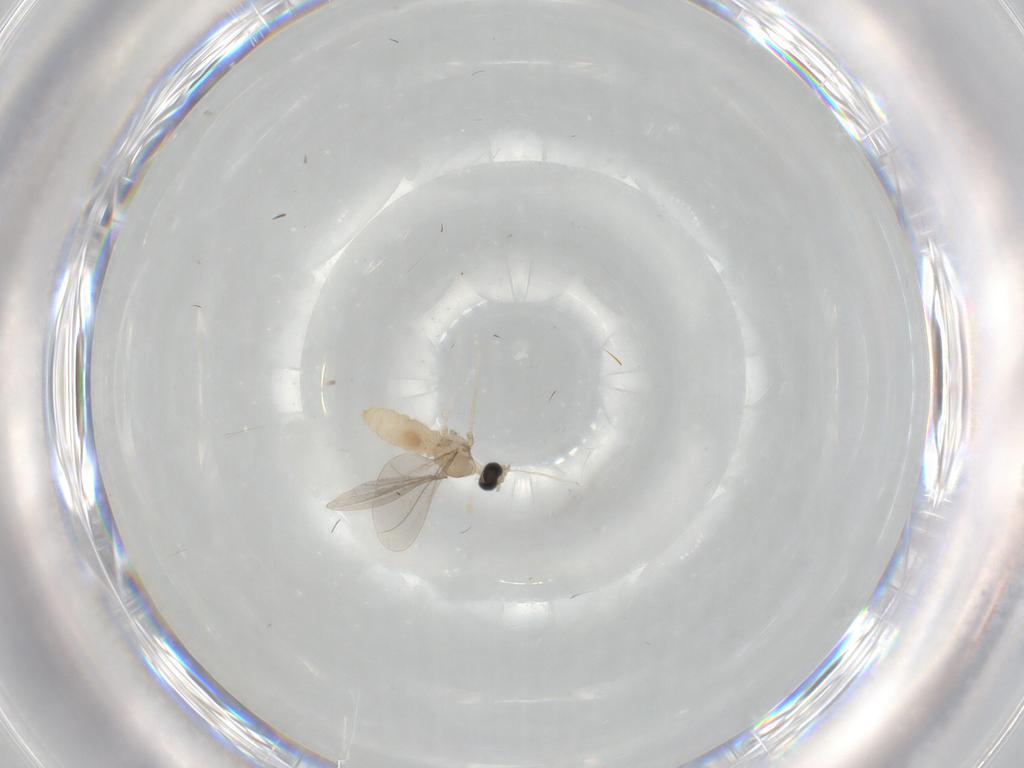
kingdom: Animalia
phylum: Arthropoda
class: Insecta
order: Diptera
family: Cecidomyiidae
